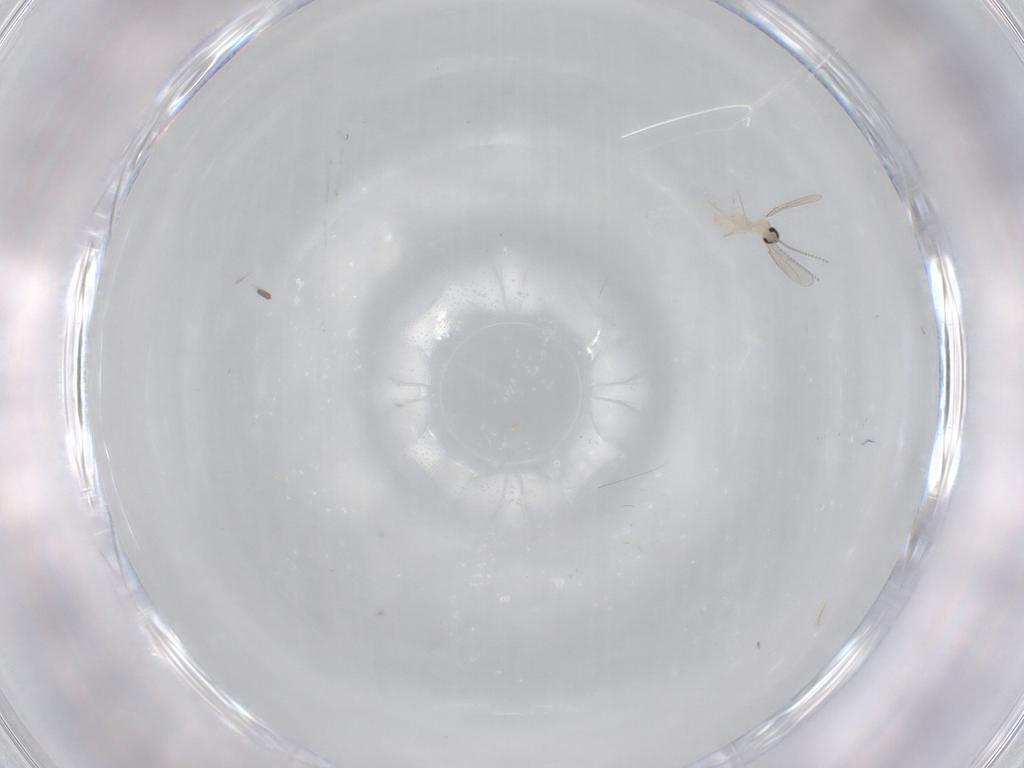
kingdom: Animalia
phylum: Arthropoda
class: Insecta
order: Diptera
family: Cecidomyiidae
